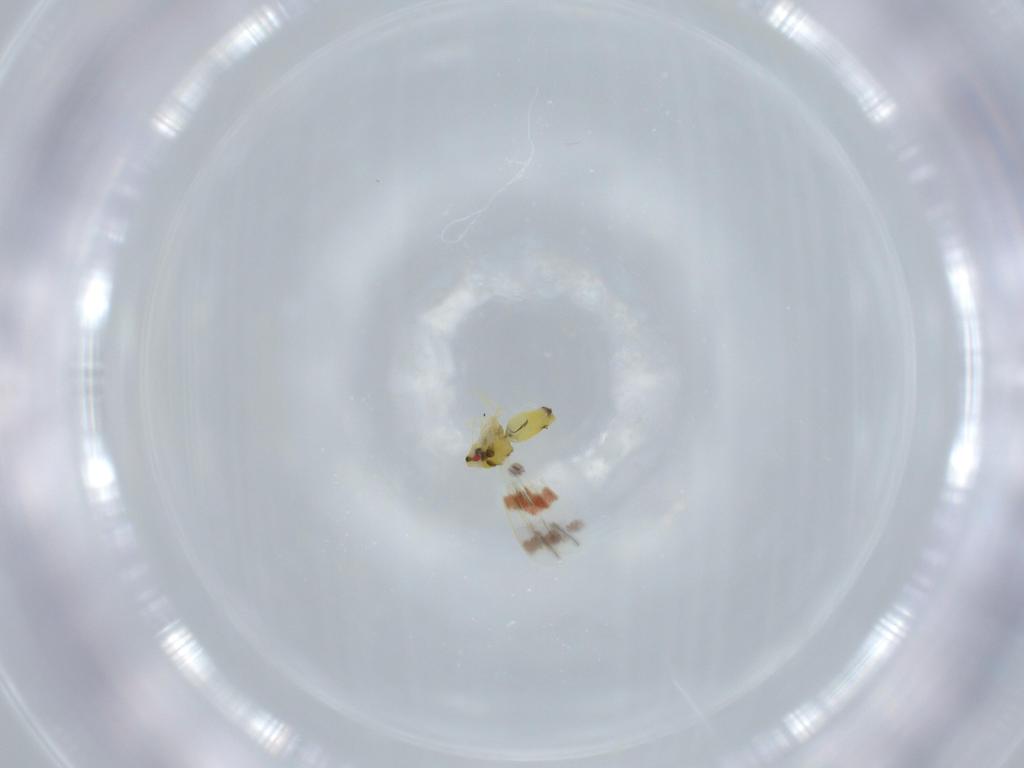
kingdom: Animalia
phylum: Arthropoda
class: Insecta
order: Hemiptera
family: Aleyrodidae
